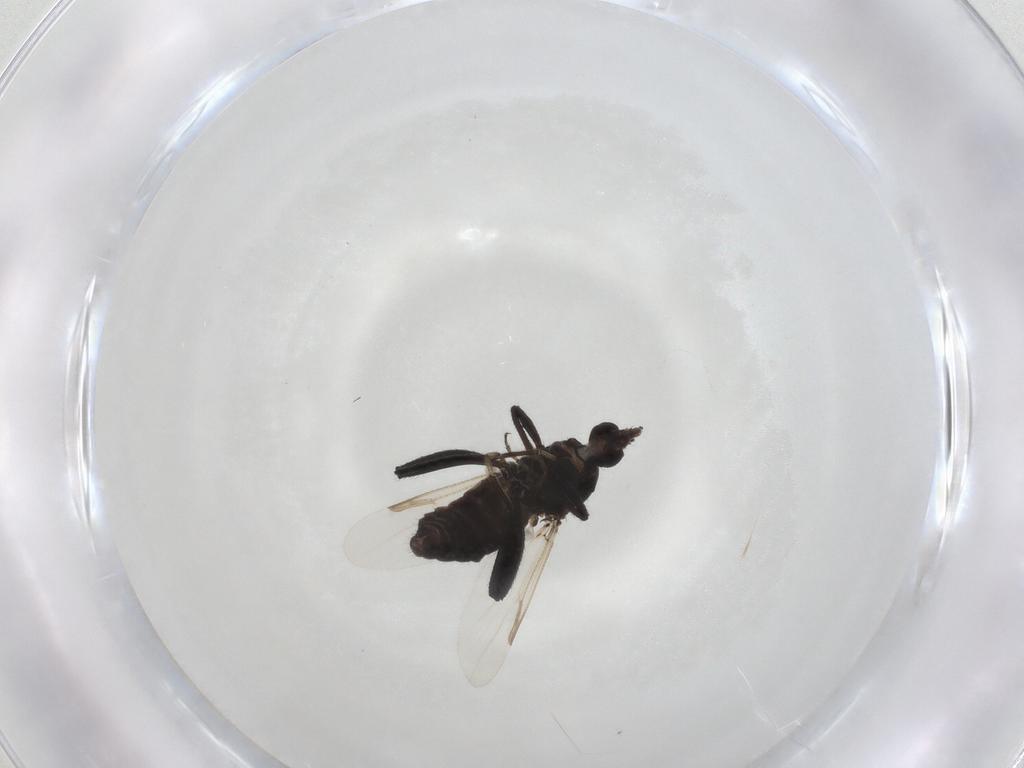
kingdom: Animalia
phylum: Arthropoda
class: Insecta
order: Diptera
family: Ceratopogonidae
